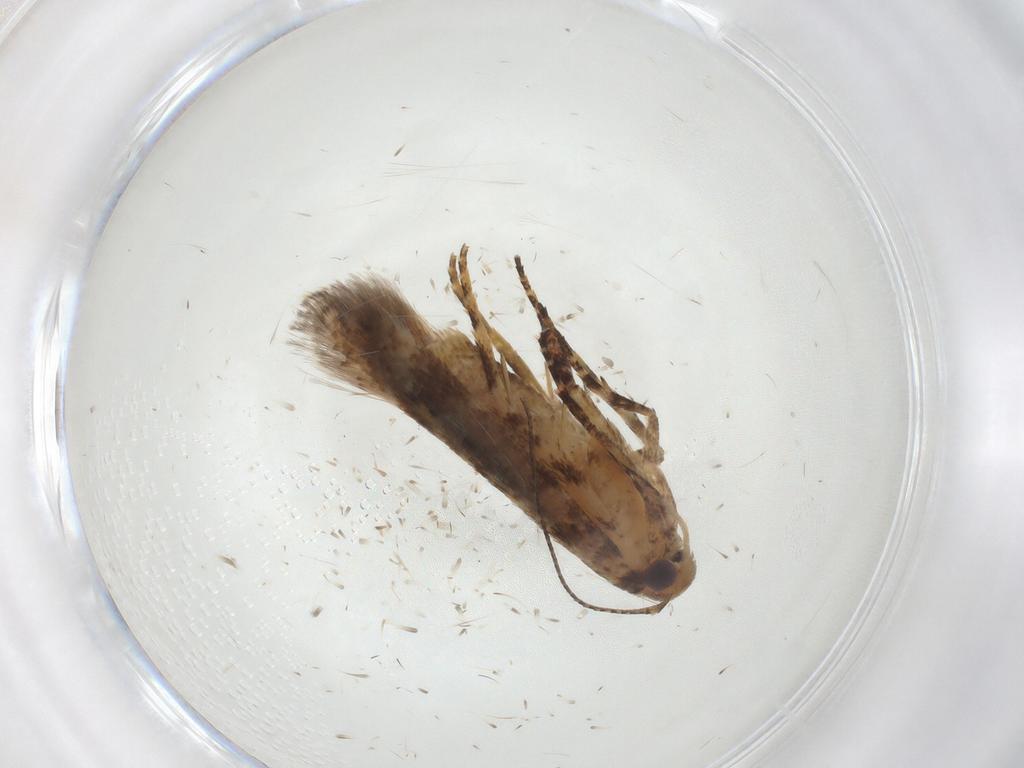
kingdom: Animalia
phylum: Arthropoda
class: Insecta
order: Lepidoptera
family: Gelechiidae
